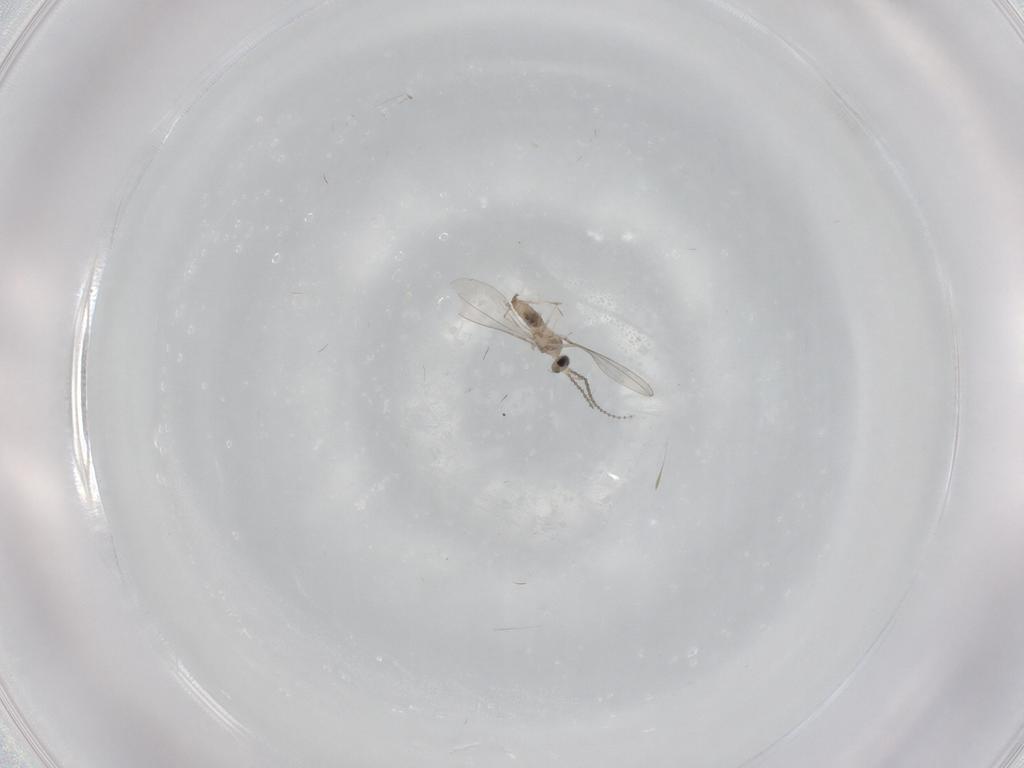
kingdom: Animalia
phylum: Arthropoda
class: Insecta
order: Diptera
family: Cecidomyiidae
